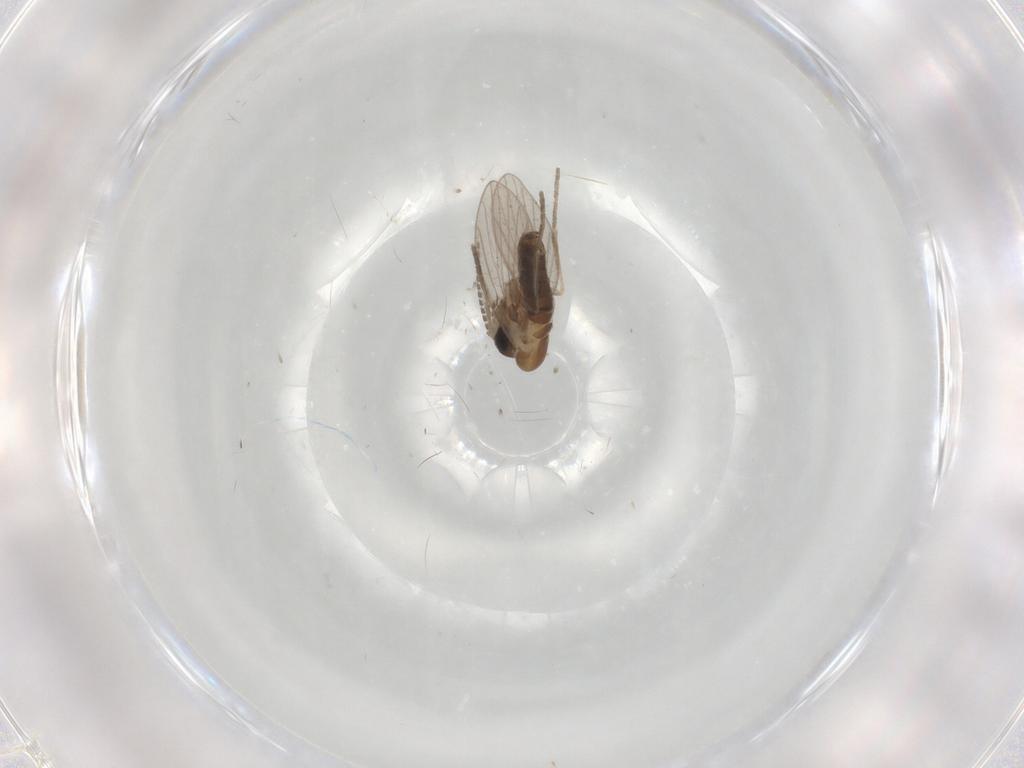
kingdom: Animalia
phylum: Arthropoda
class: Insecta
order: Diptera
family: Psychodidae
